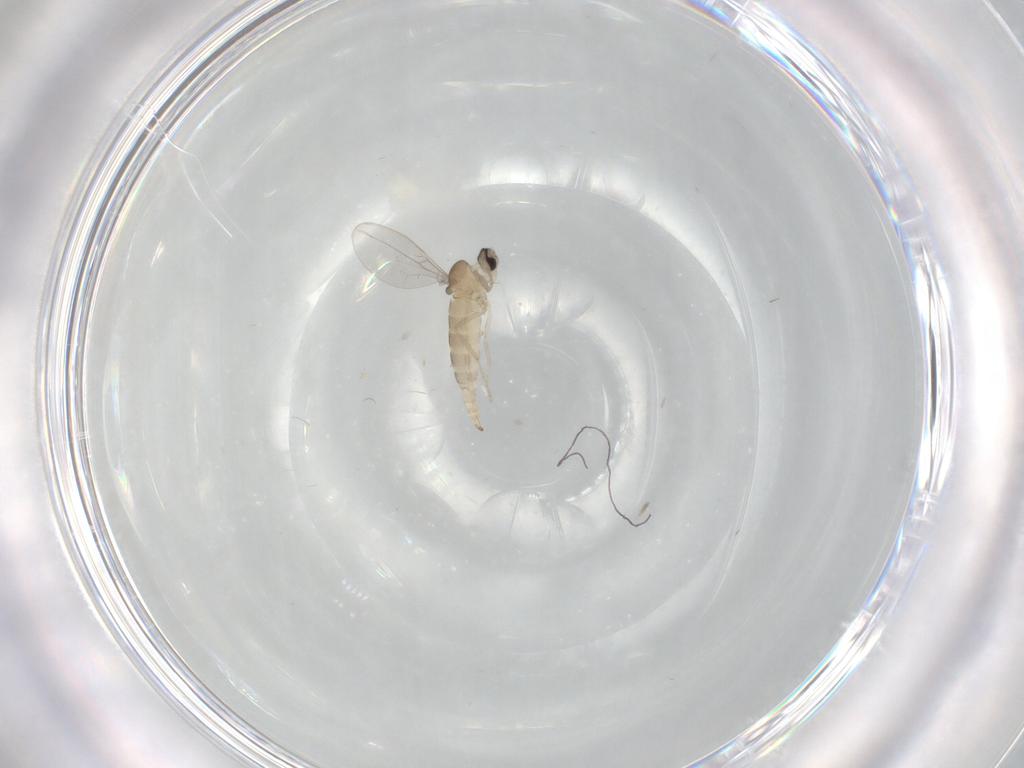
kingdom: Animalia
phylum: Arthropoda
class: Insecta
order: Diptera
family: Cecidomyiidae
